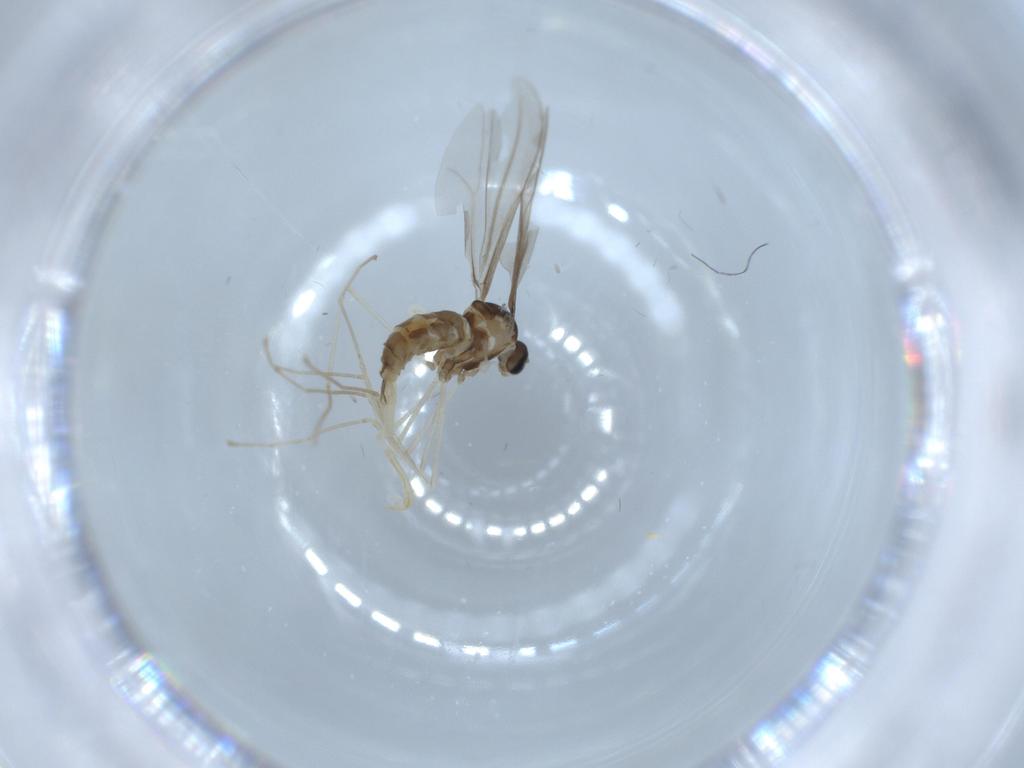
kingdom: Animalia
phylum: Arthropoda
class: Insecta
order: Diptera
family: Cecidomyiidae
